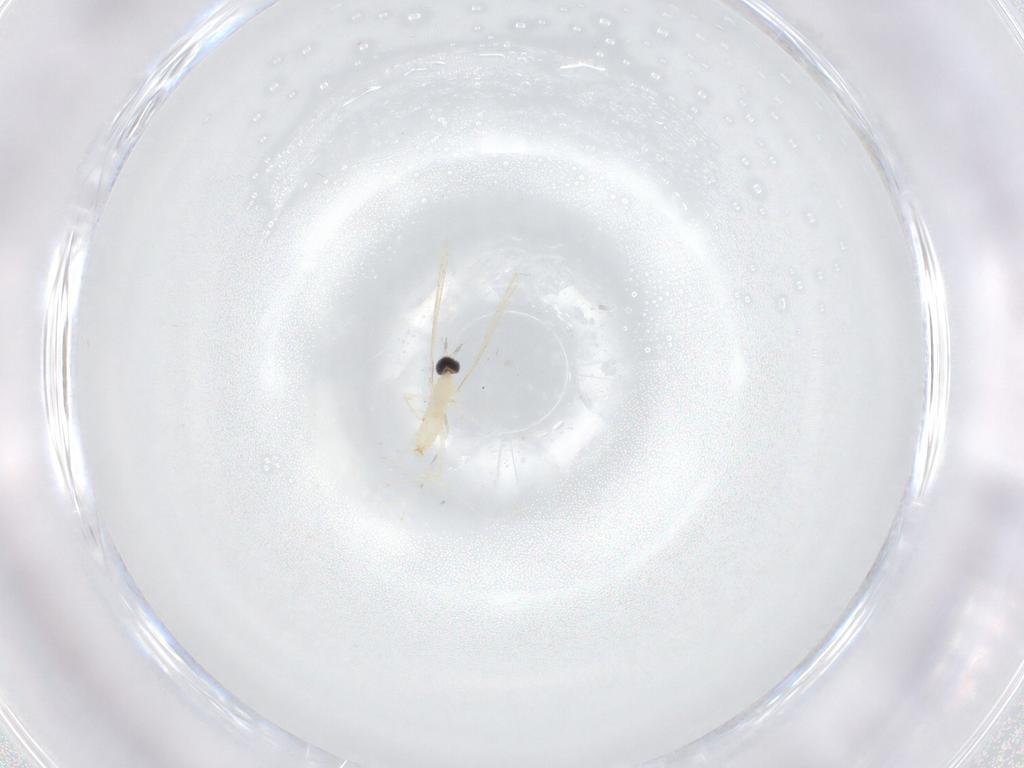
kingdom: Animalia
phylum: Arthropoda
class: Insecta
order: Diptera
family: Cecidomyiidae
